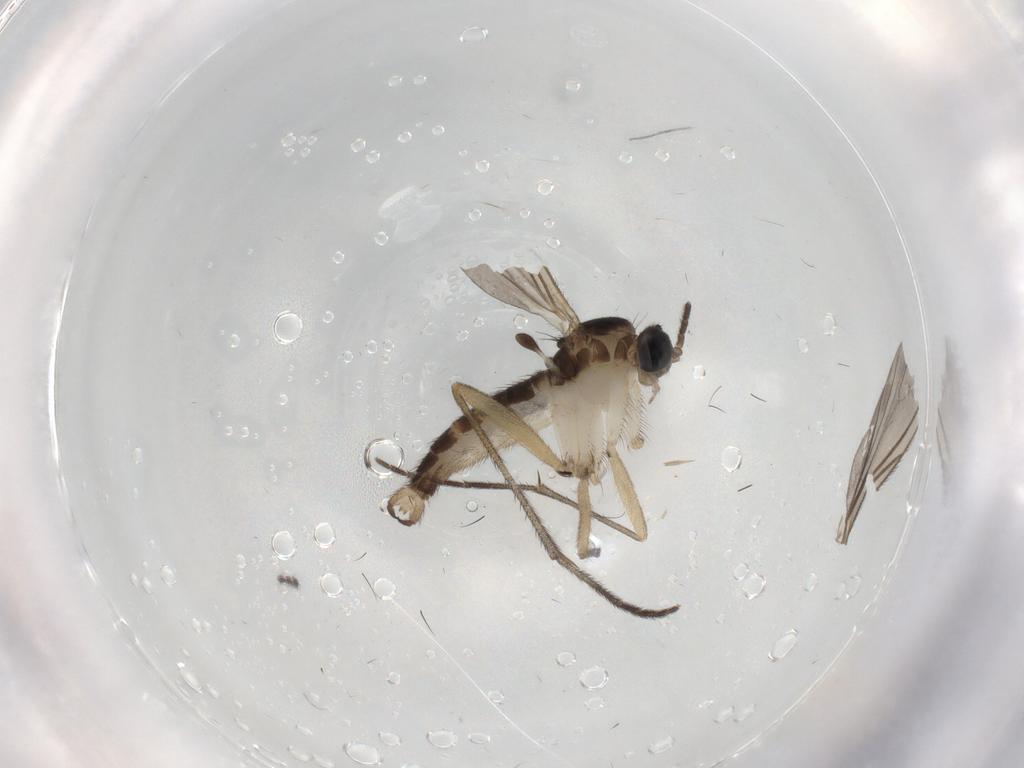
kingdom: Animalia
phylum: Arthropoda
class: Insecta
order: Diptera
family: Sciaridae
